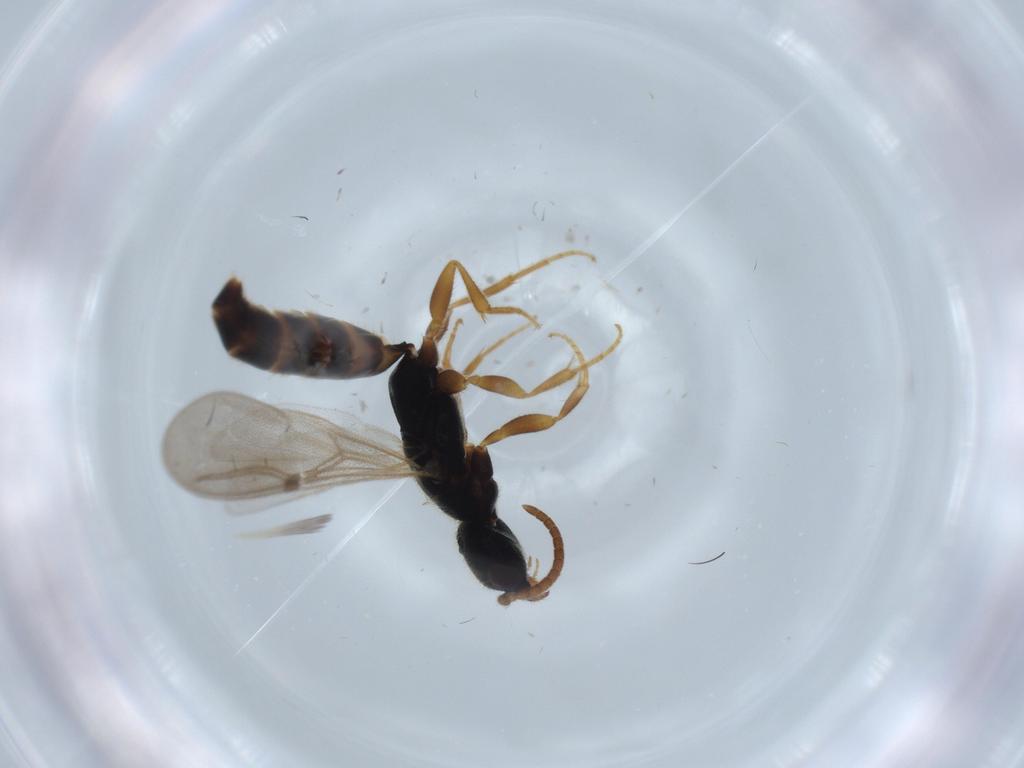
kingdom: Animalia
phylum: Arthropoda
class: Insecta
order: Hymenoptera
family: Bethylidae
